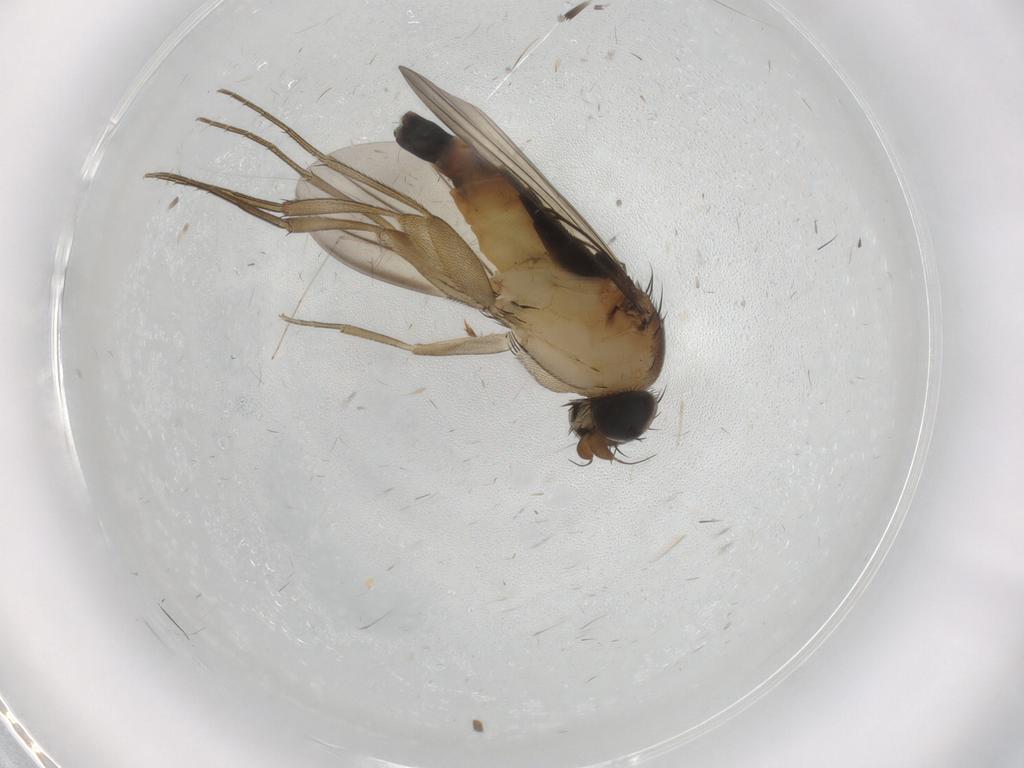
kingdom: Animalia
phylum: Arthropoda
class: Insecta
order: Diptera
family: Phoridae
